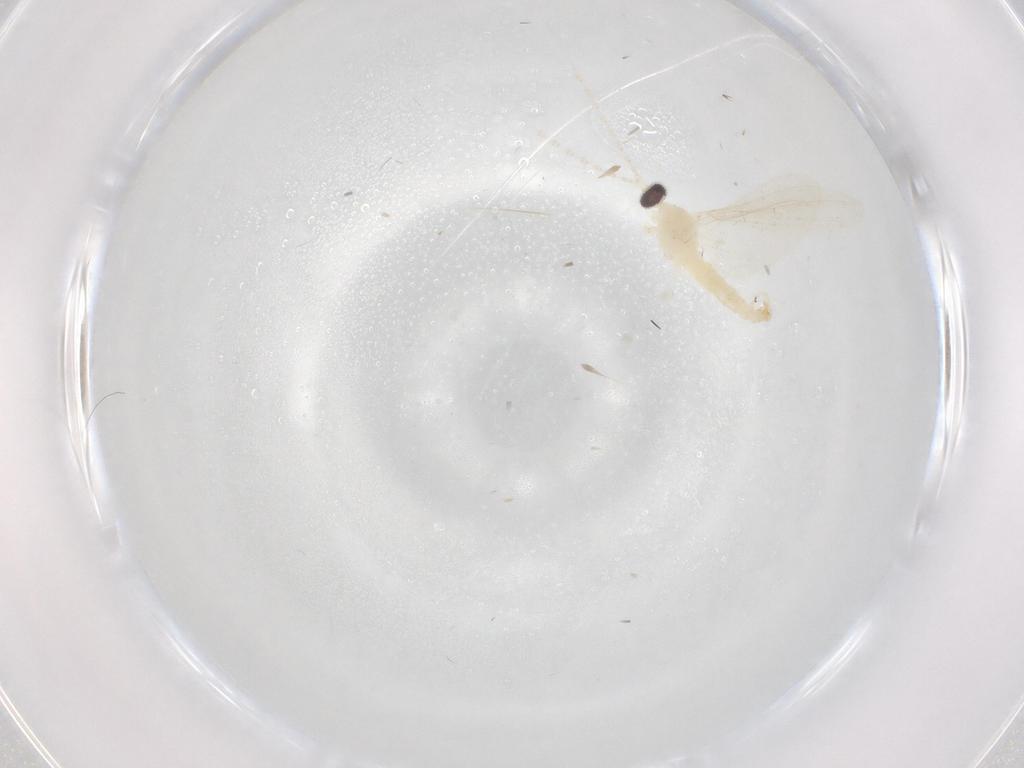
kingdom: Animalia
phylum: Arthropoda
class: Insecta
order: Diptera
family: Cecidomyiidae
